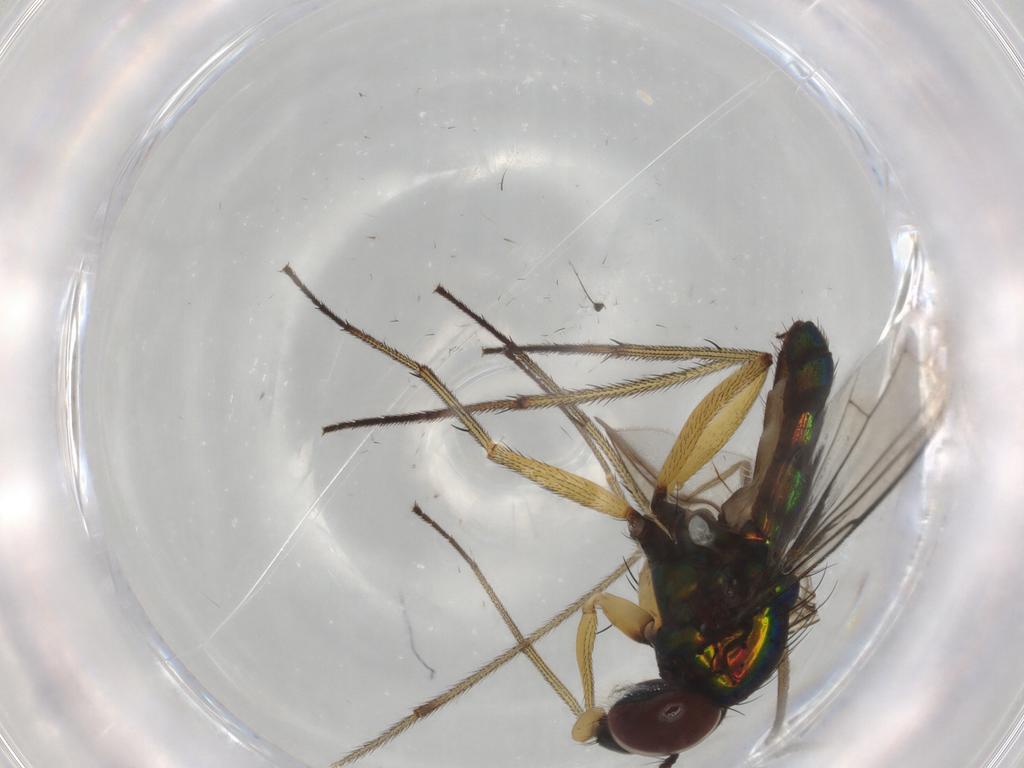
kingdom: Animalia
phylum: Arthropoda
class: Insecta
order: Diptera
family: Dolichopodidae
